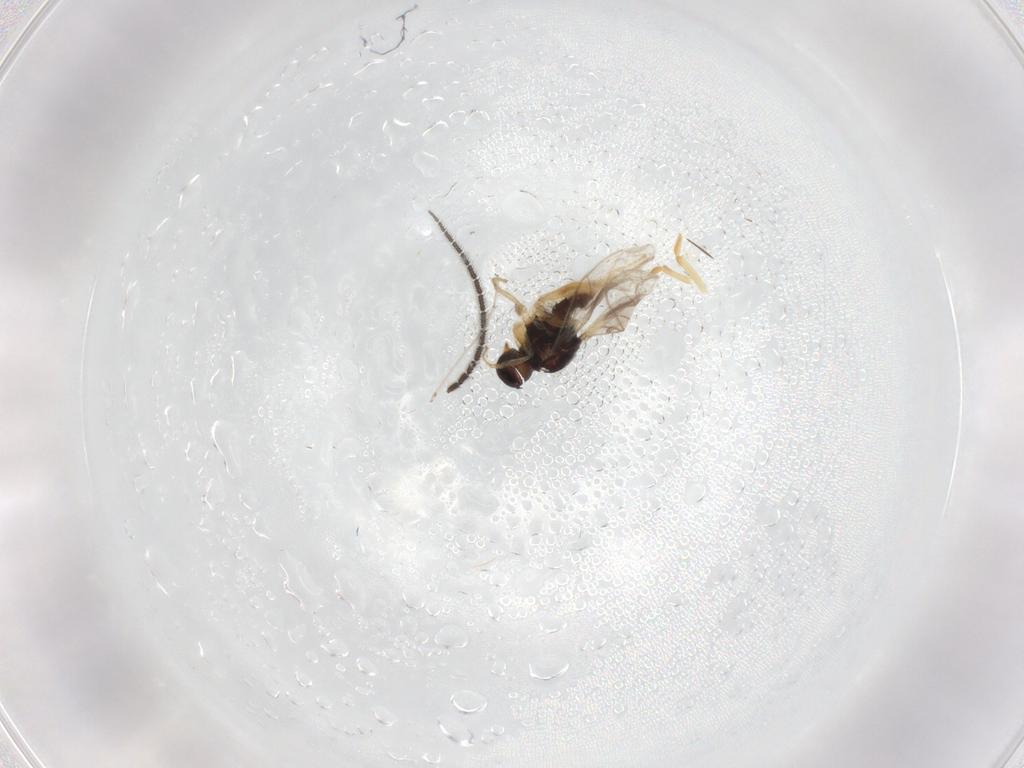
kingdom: Animalia
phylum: Arthropoda
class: Insecta
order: Diptera
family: Hybotidae
